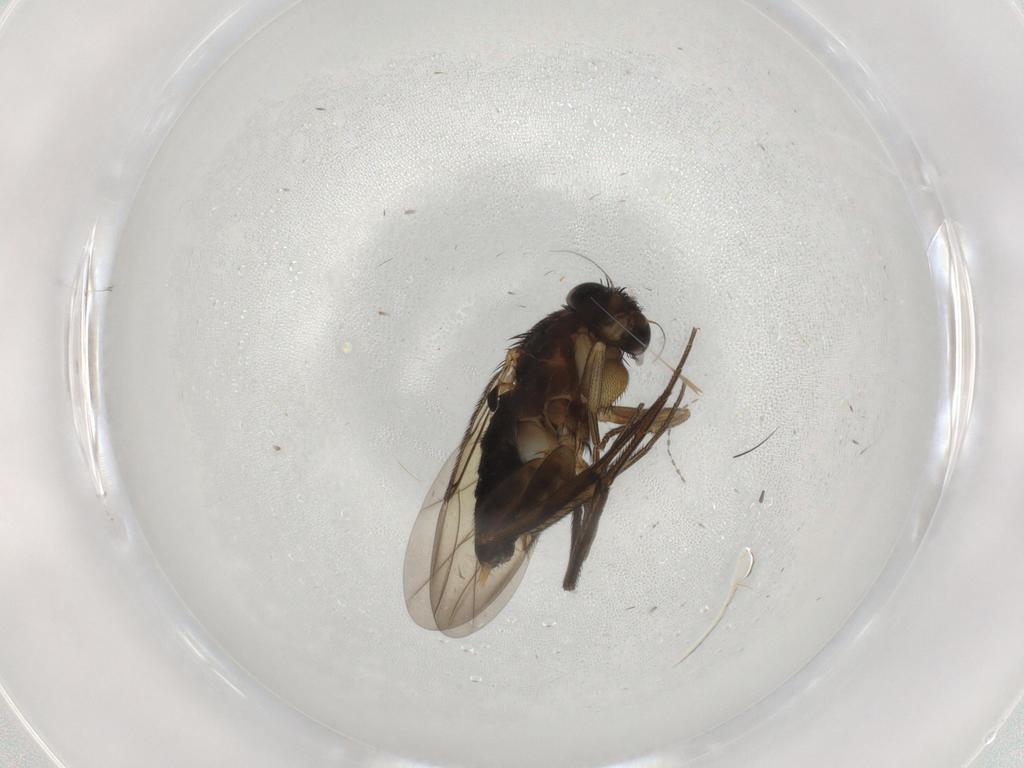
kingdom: Animalia
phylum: Arthropoda
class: Insecta
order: Diptera
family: Phoridae
